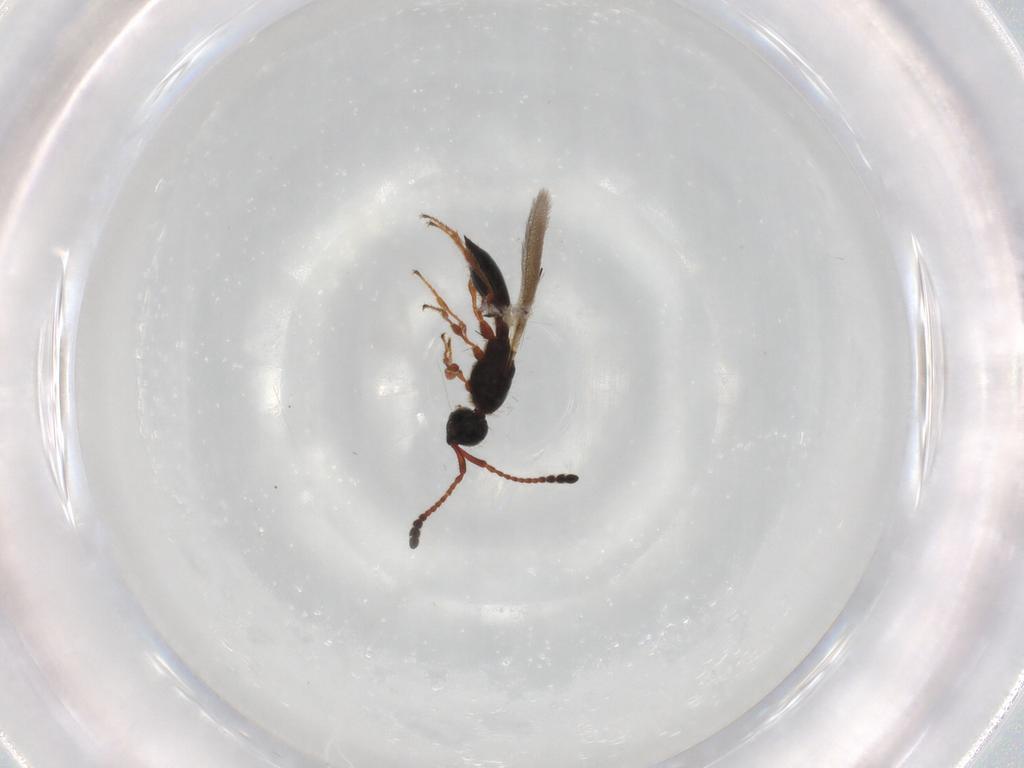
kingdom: Animalia
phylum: Arthropoda
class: Insecta
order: Hymenoptera
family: Diapriidae
